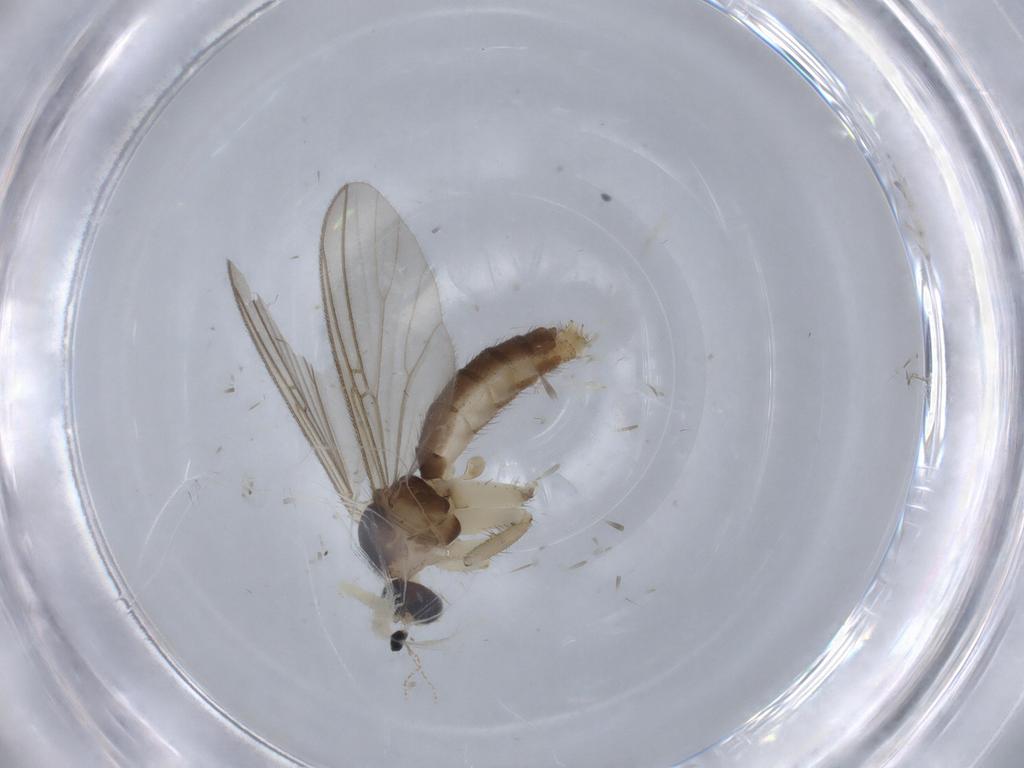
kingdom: Animalia
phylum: Arthropoda
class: Insecta
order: Diptera
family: Mycetophilidae
